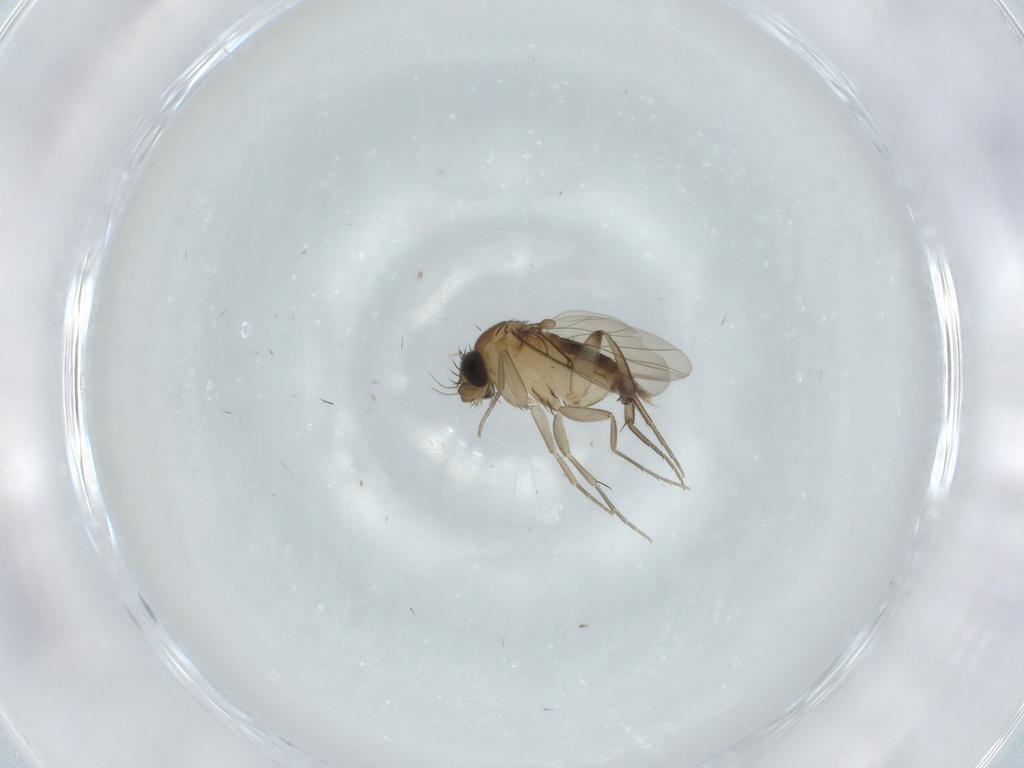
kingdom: Animalia
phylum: Arthropoda
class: Insecta
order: Diptera
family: Phoridae
